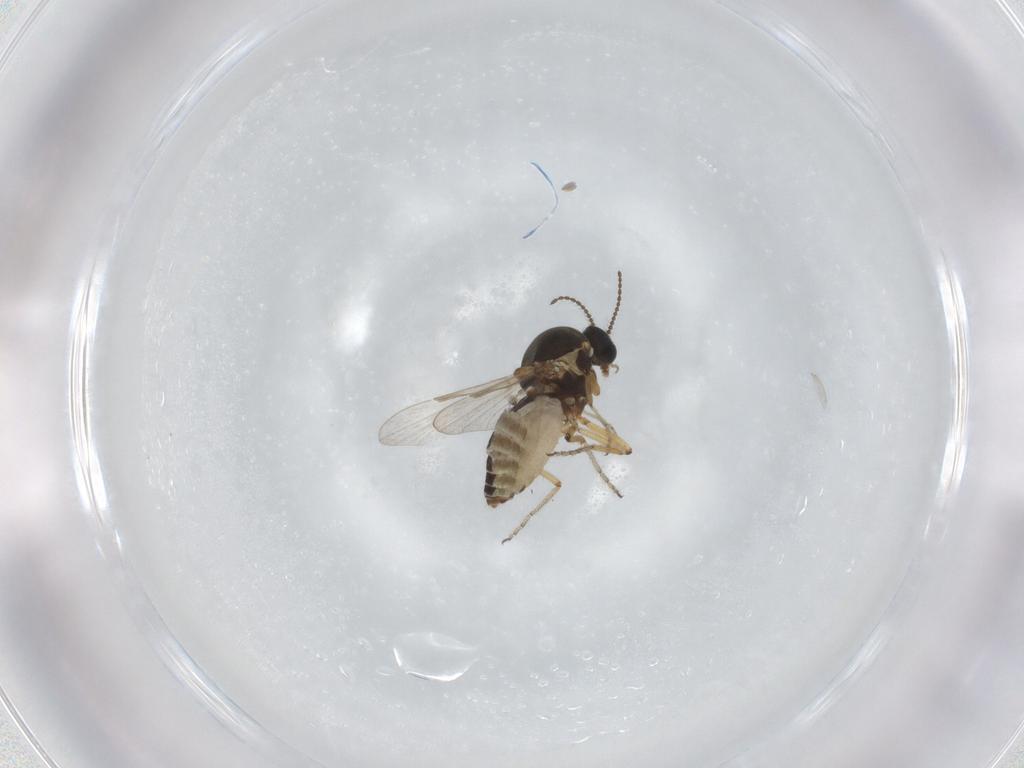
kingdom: Animalia
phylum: Arthropoda
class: Insecta
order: Diptera
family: Ceratopogonidae
